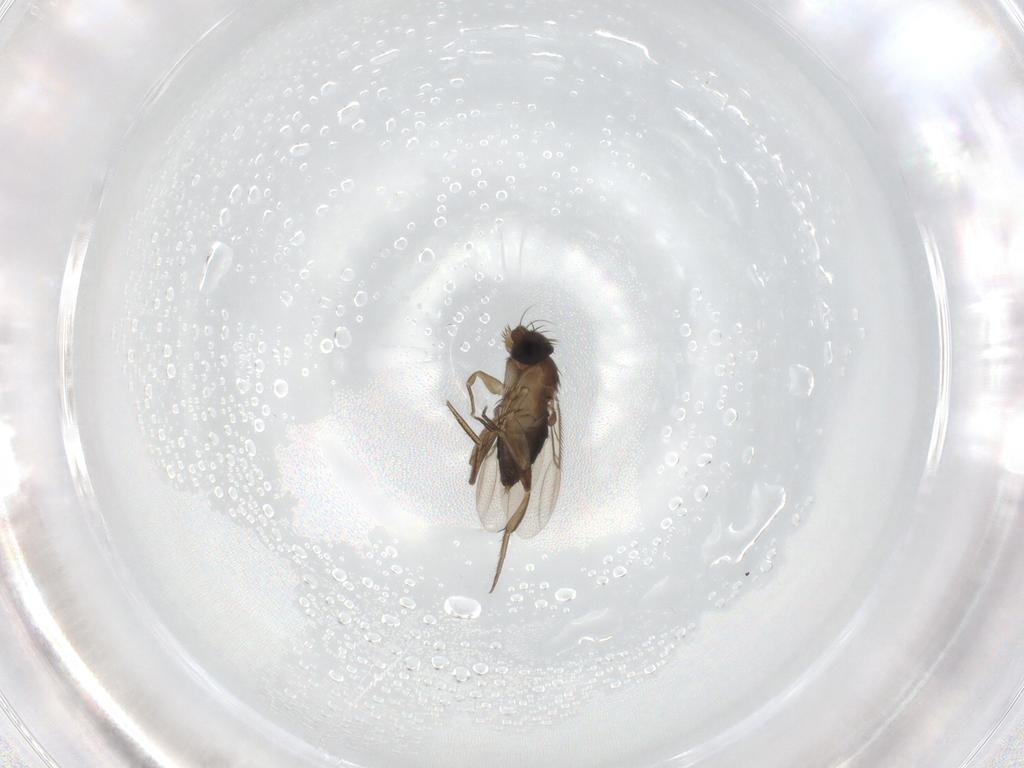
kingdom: Animalia
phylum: Arthropoda
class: Insecta
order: Diptera
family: Phoridae
